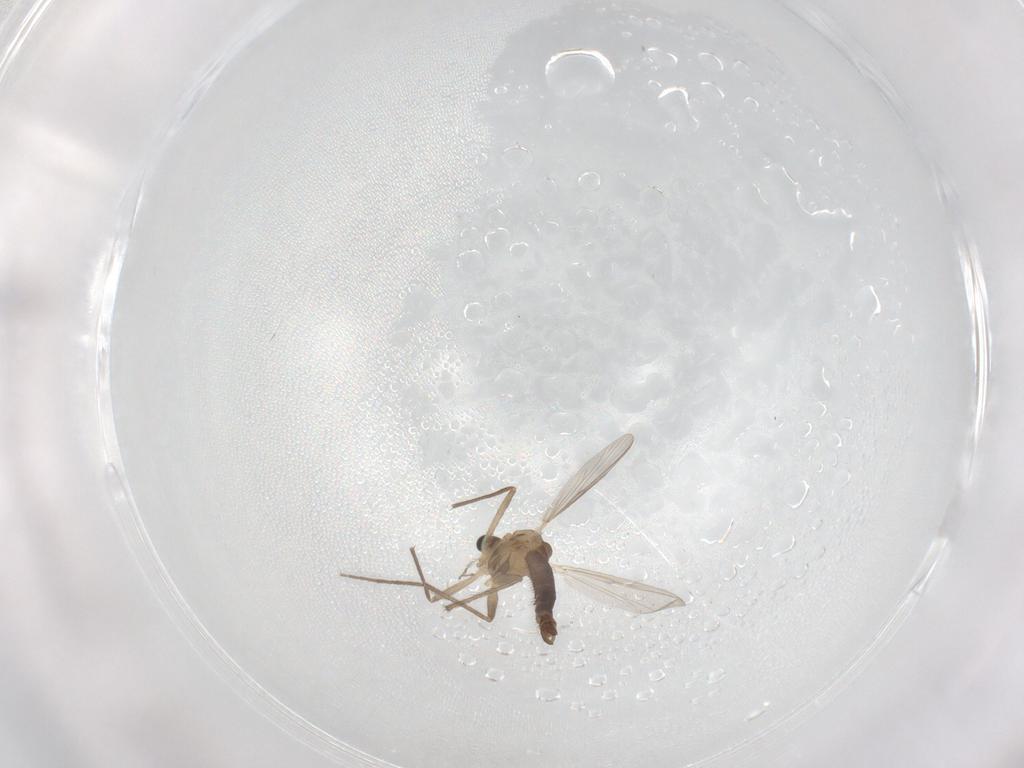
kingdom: Animalia
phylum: Arthropoda
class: Insecta
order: Diptera
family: Chironomidae
